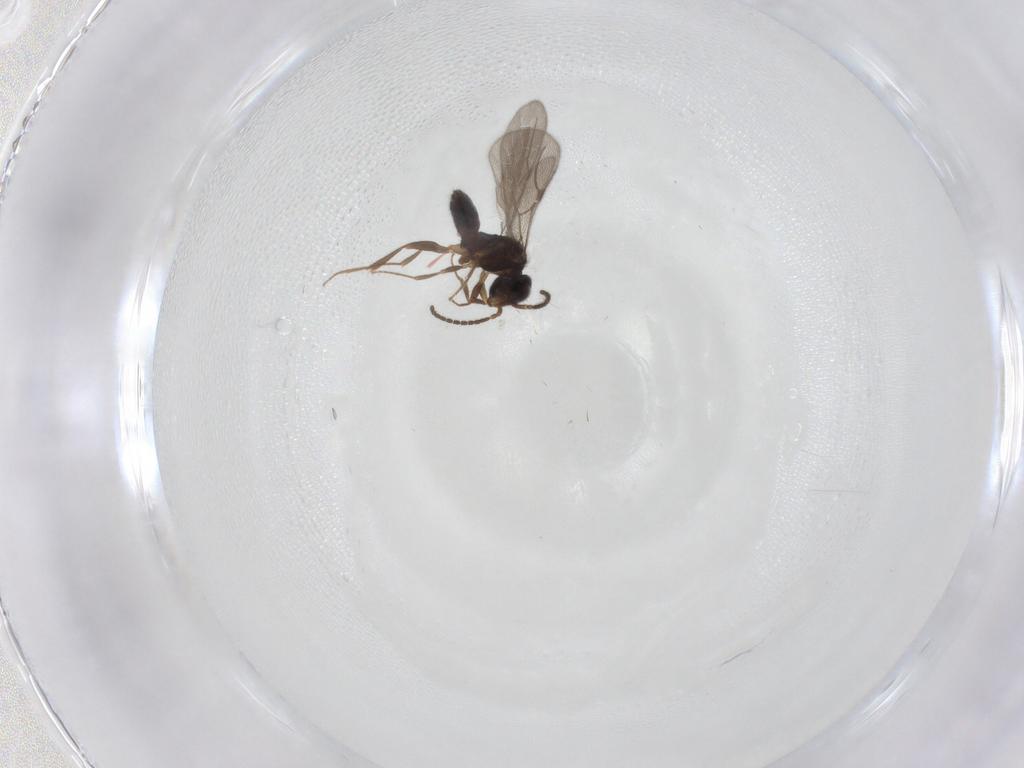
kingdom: Animalia
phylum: Arthropoda
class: Insecta
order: Hymenoptera
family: Bethylidae
